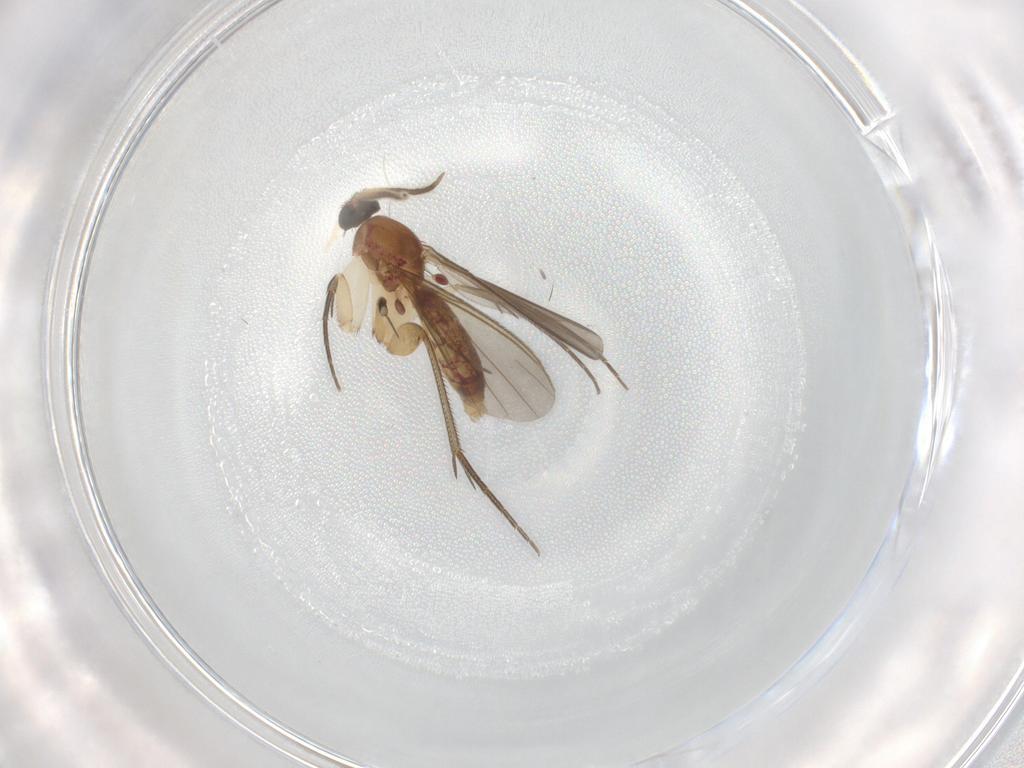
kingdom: Animalia
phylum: Arthropoda
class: Insecta
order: Diptera
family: Mycetophilidae
